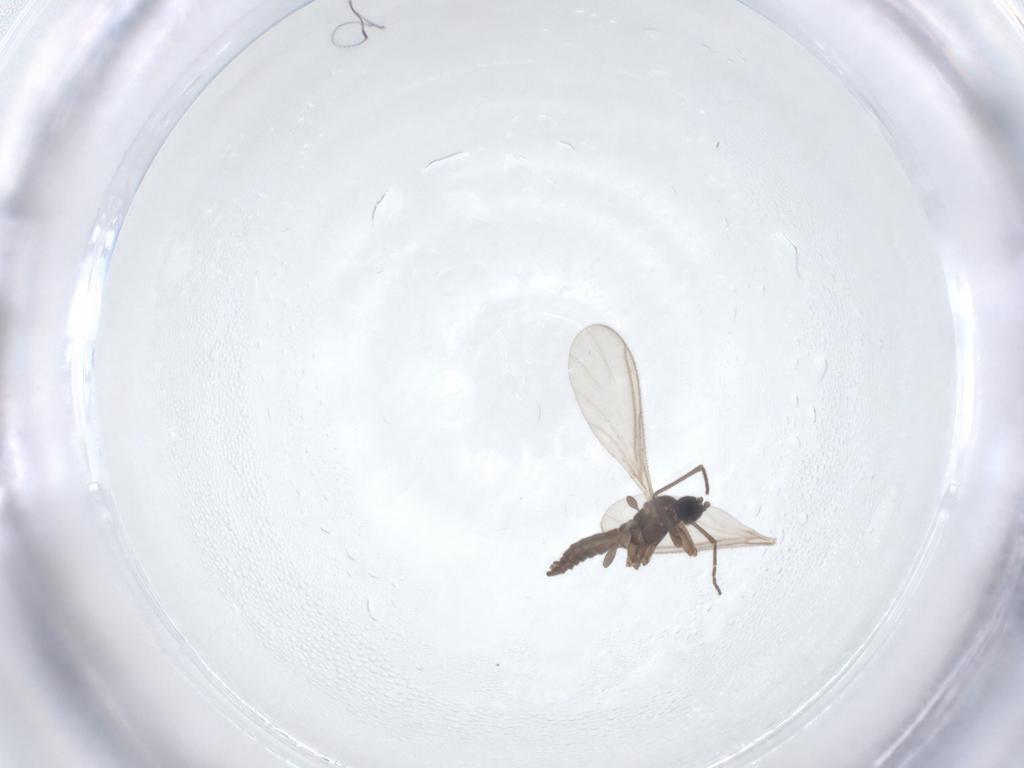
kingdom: Animalia
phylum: Arthropoda
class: Insecta
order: Diptera
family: Sciaridae
